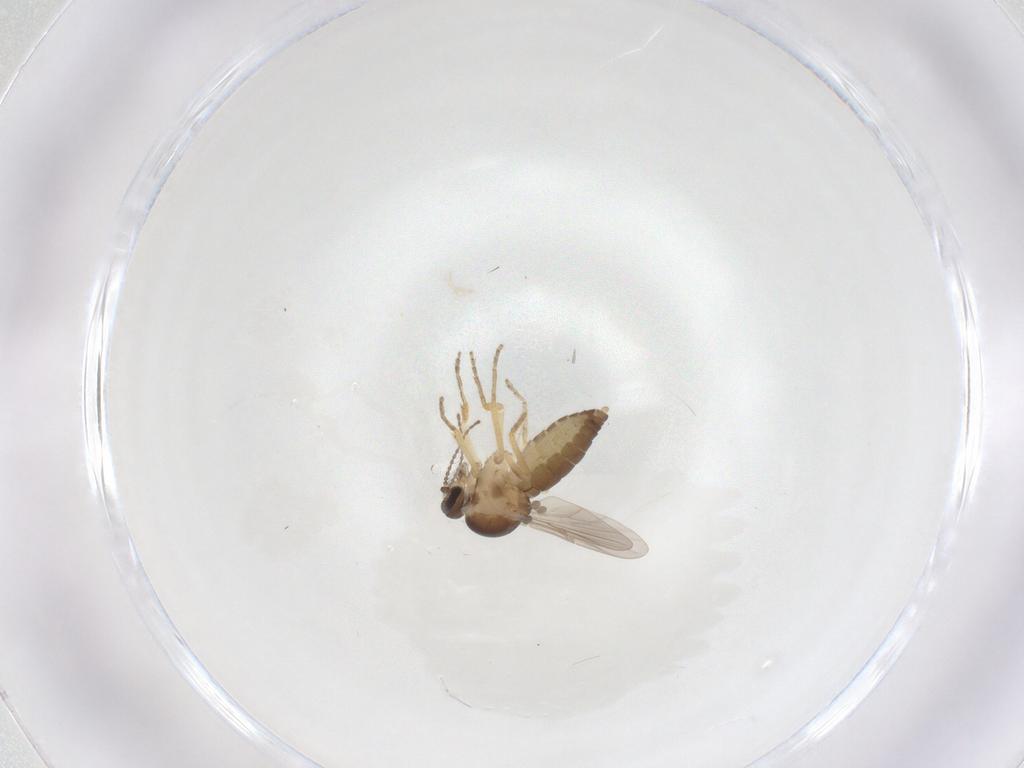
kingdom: Animalia
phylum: Arthropoda
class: Insecta
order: Diptera
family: Ceratopogonidae
